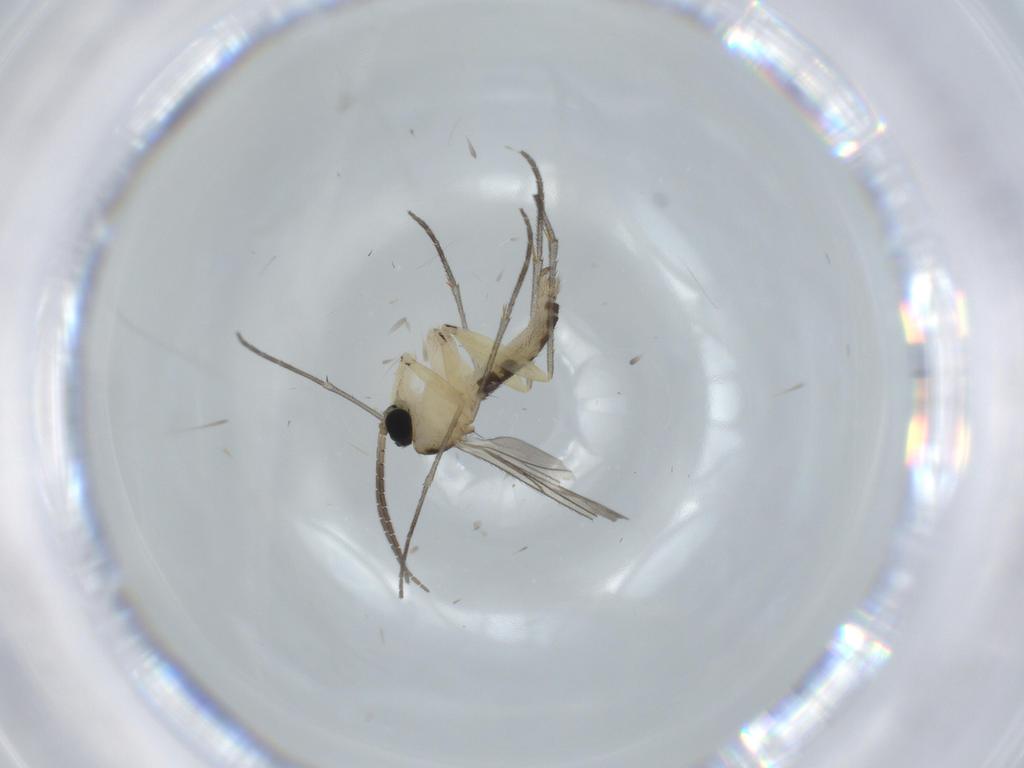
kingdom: Animalia
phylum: Arthropoda
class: Insecta
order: Diptera
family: Sciaridae
